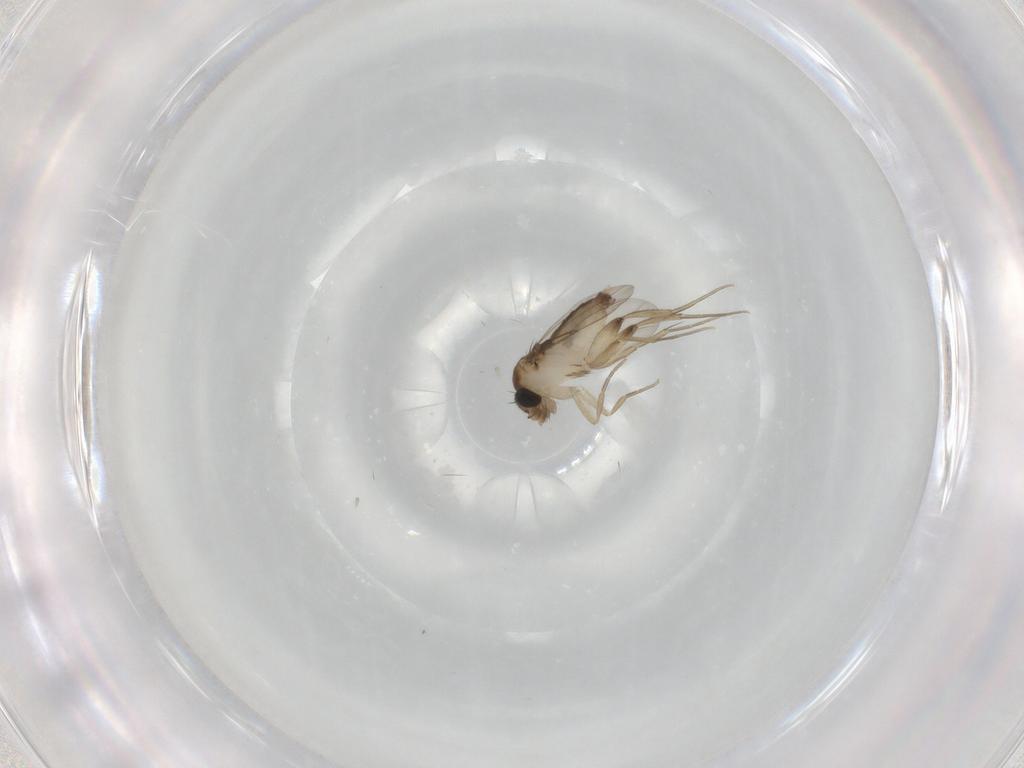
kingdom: Animalia
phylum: Arthropoda
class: Insecta
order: Diptera
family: Phoridae
